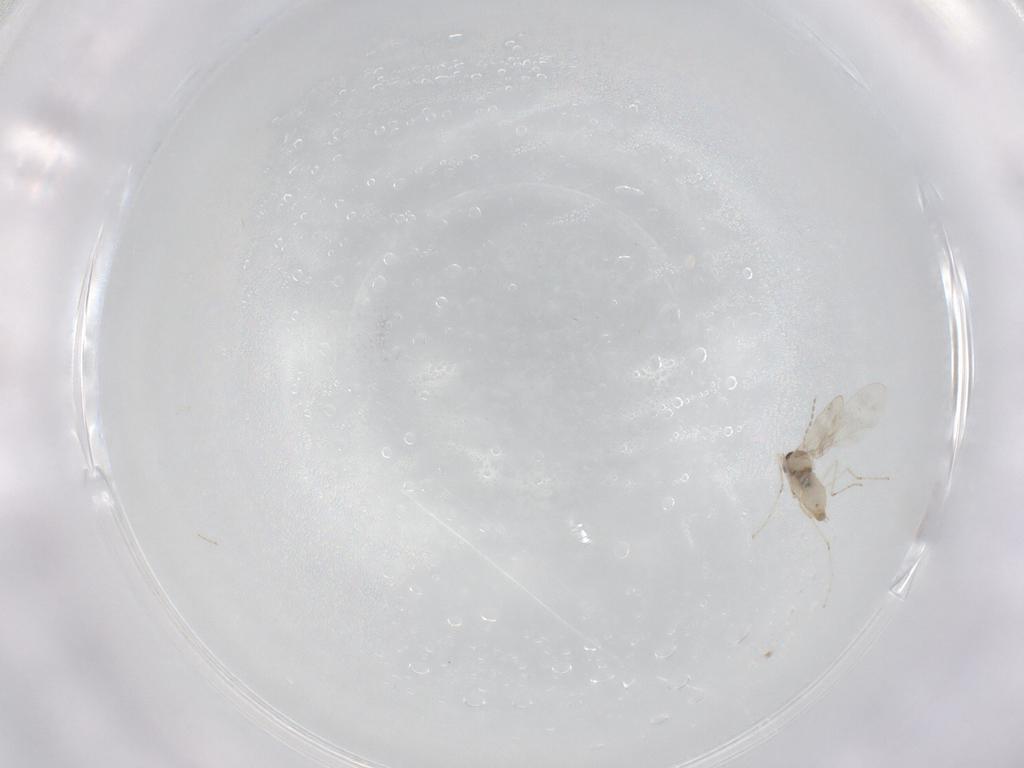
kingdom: Animalia
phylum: Arthropoda
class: Insecta
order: Diptera
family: Cecidomyiidae
